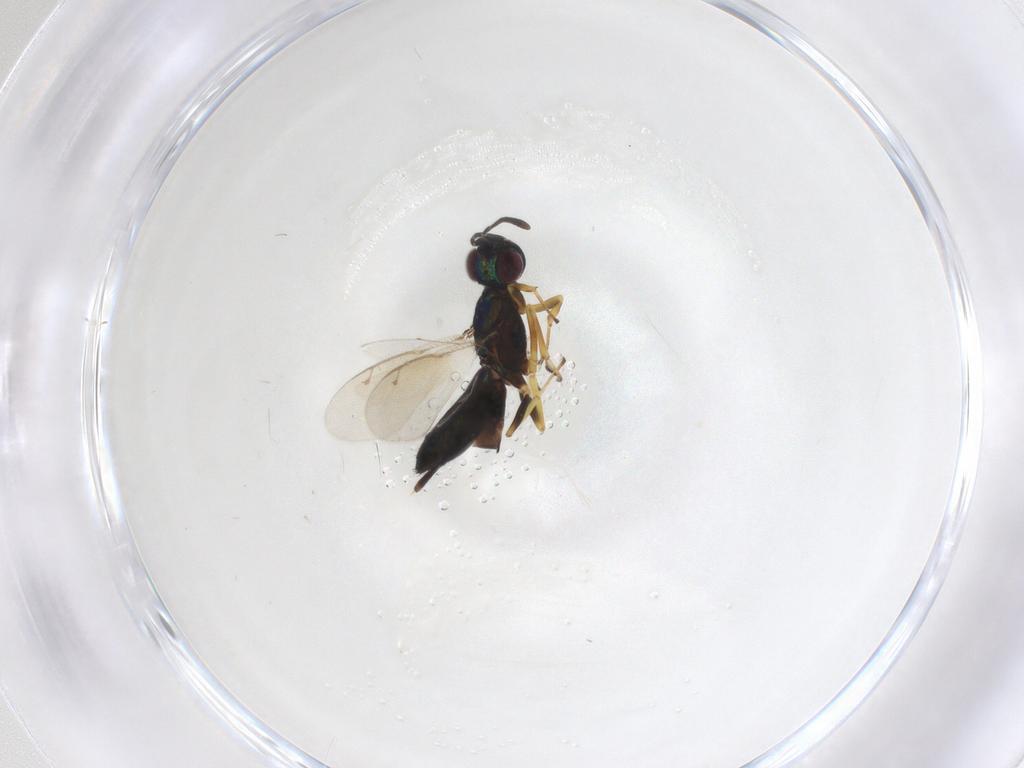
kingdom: Animalia
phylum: Arthropoda
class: Insecta
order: Hymenoptera
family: Eupelmidae
